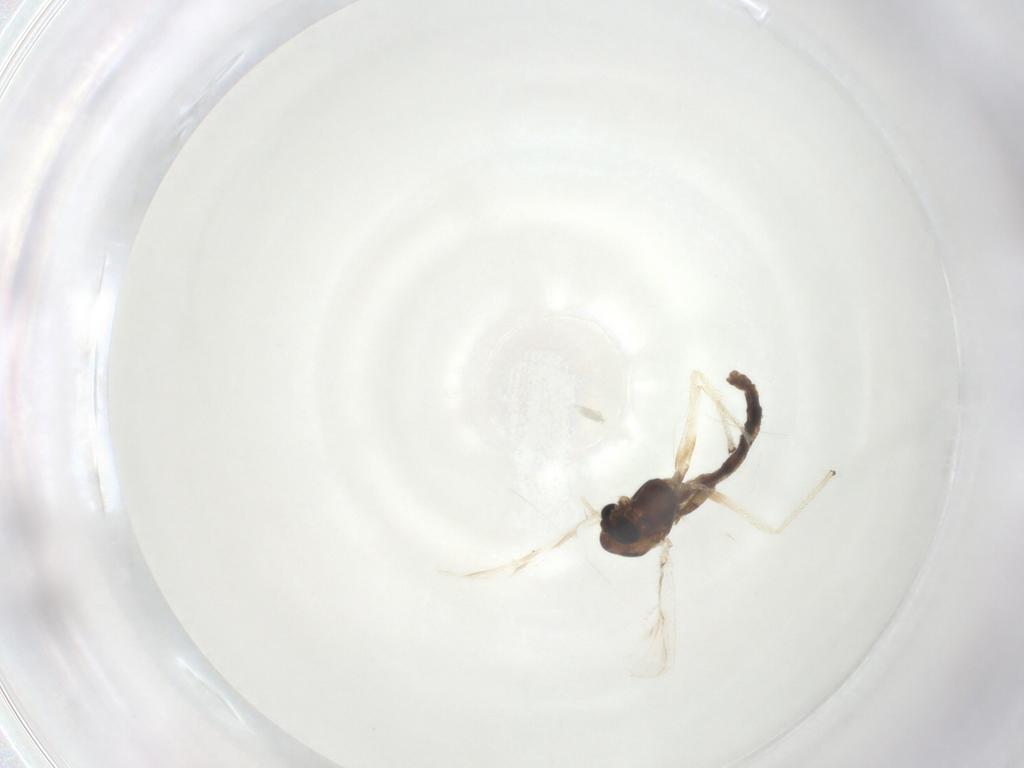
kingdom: Animalia
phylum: Arthropoda
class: Insecta
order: Diptera
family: Chironomidae
